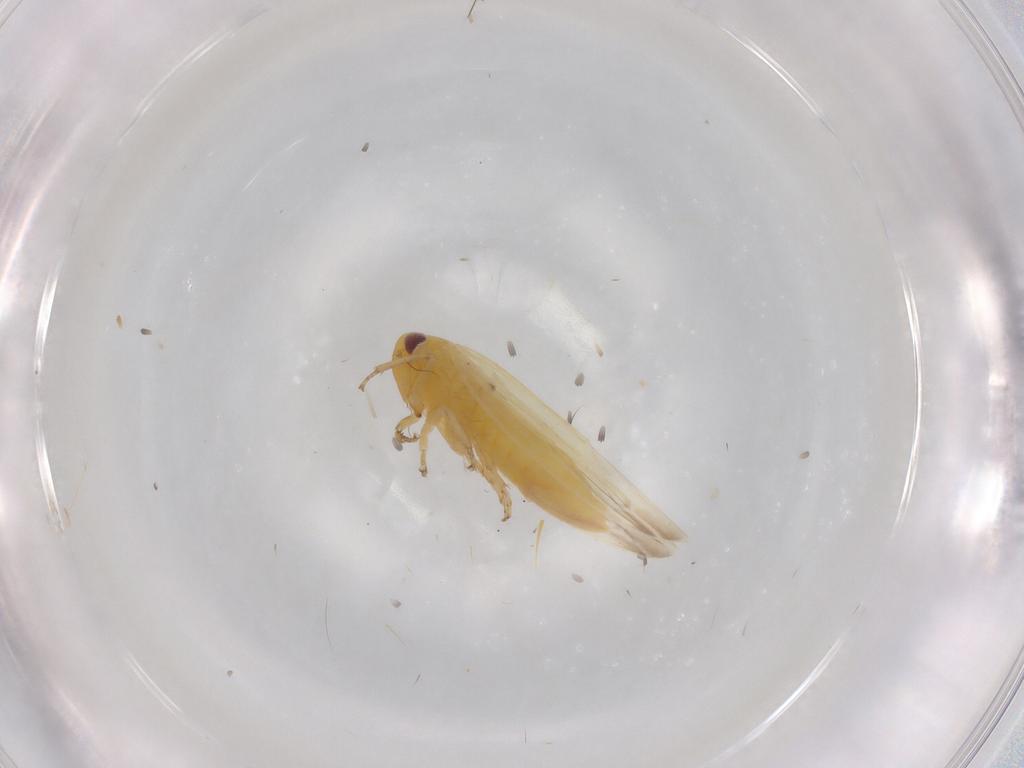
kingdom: Animalia
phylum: Arthropoda
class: Insecta
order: Hemiptera
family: Cicadellidae
